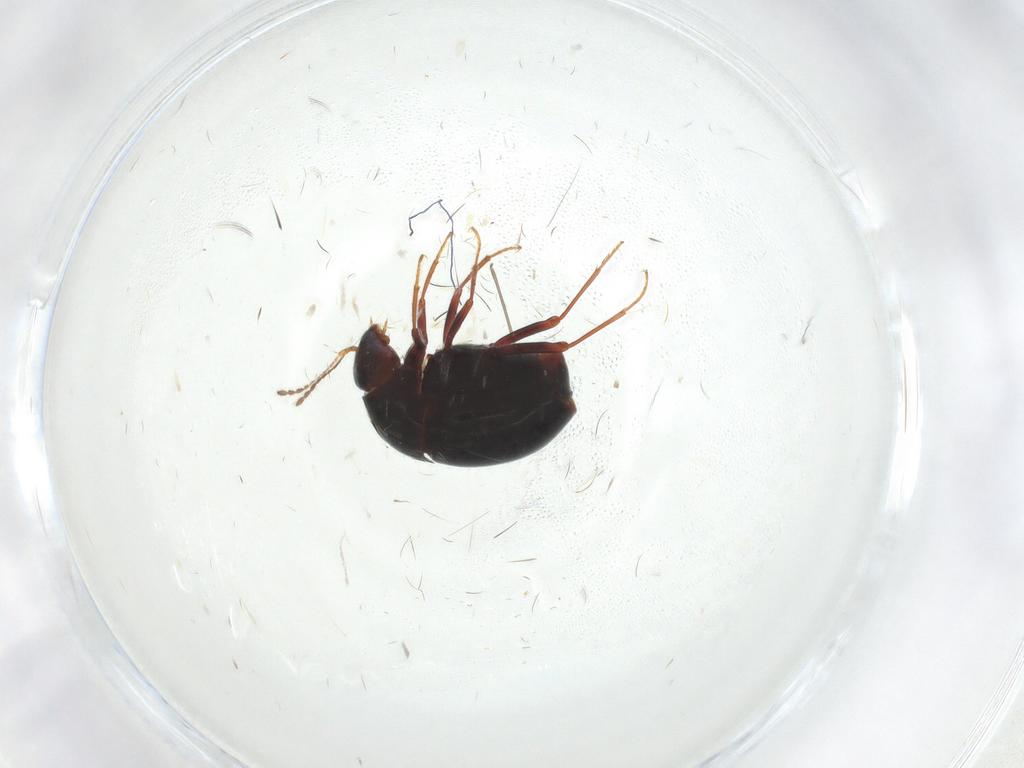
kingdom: Animalia
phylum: Arthropoda
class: Insecta
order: Coleoptera
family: Staphylinidae
